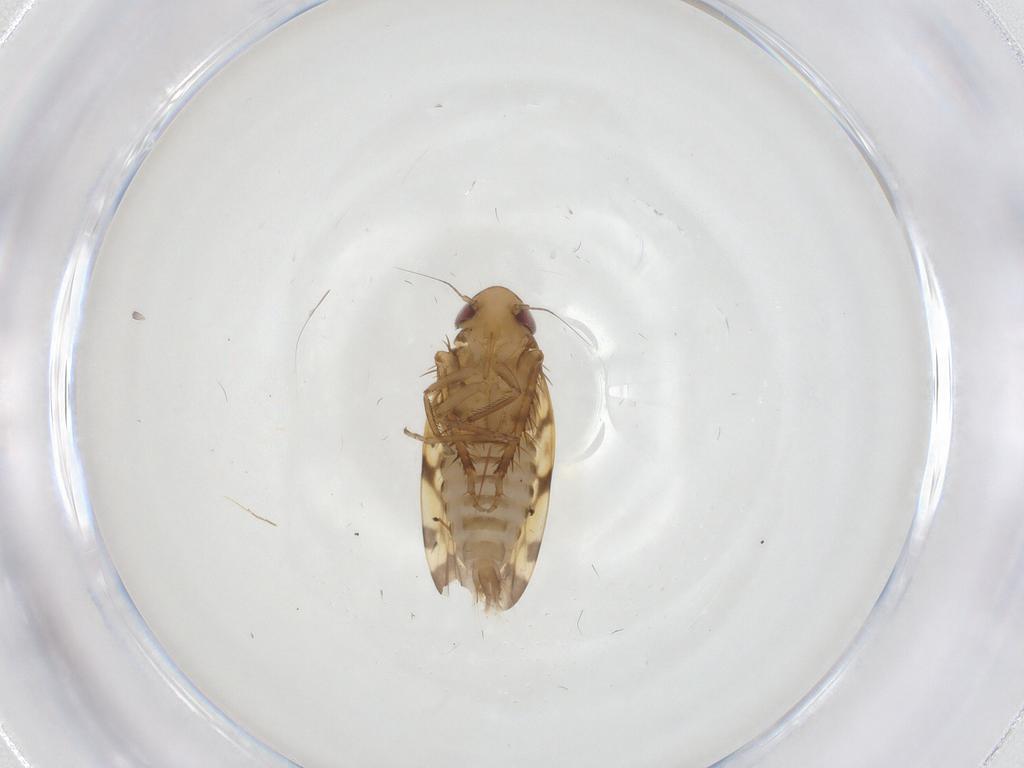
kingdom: Animalia
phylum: Arthropoda
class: Insecta
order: Hemiptera
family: Cicadellidae
